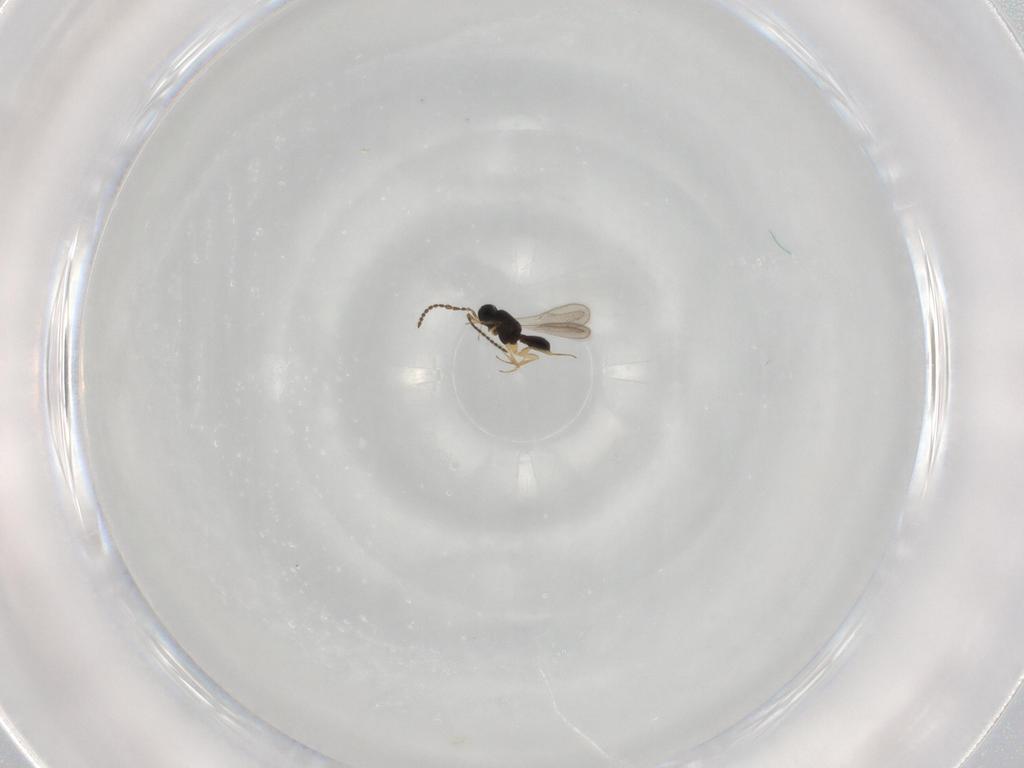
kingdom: Animalia
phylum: Arthropoda
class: Insecta
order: Hymenoptera
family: Scelionidae
